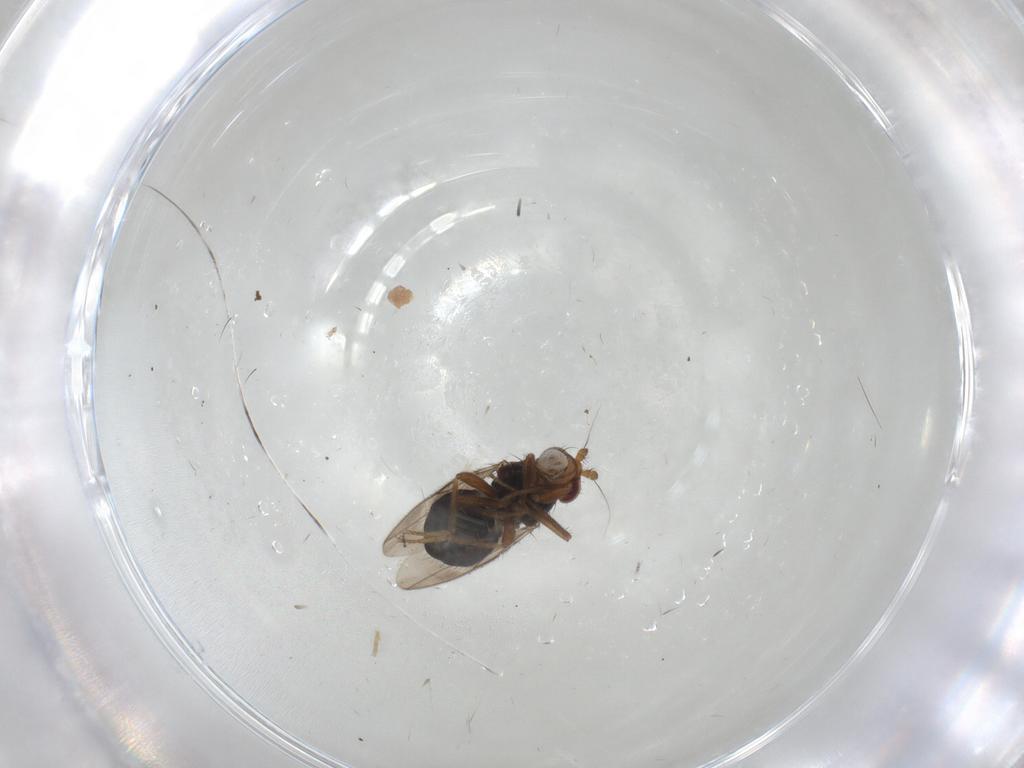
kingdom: Animalia
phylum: Arthropoda
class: Insecta
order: Diptera
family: Sphaeroceridae
